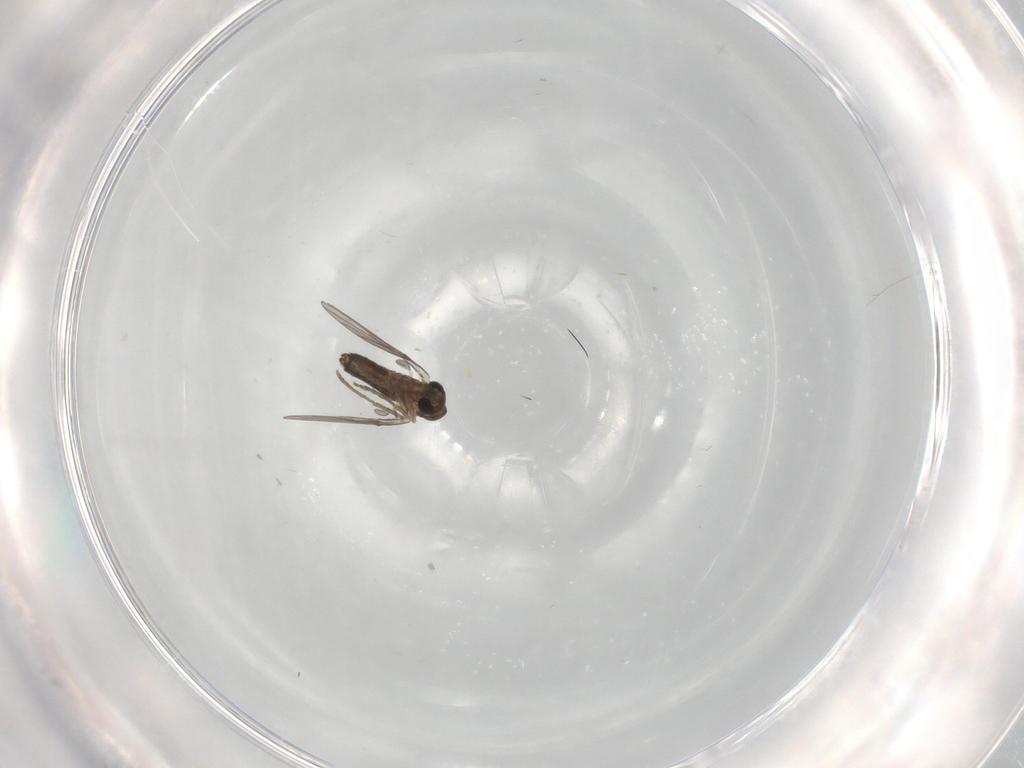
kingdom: Animalia
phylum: Arthropoda
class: Insecta
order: Diptera
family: Psychodidae
